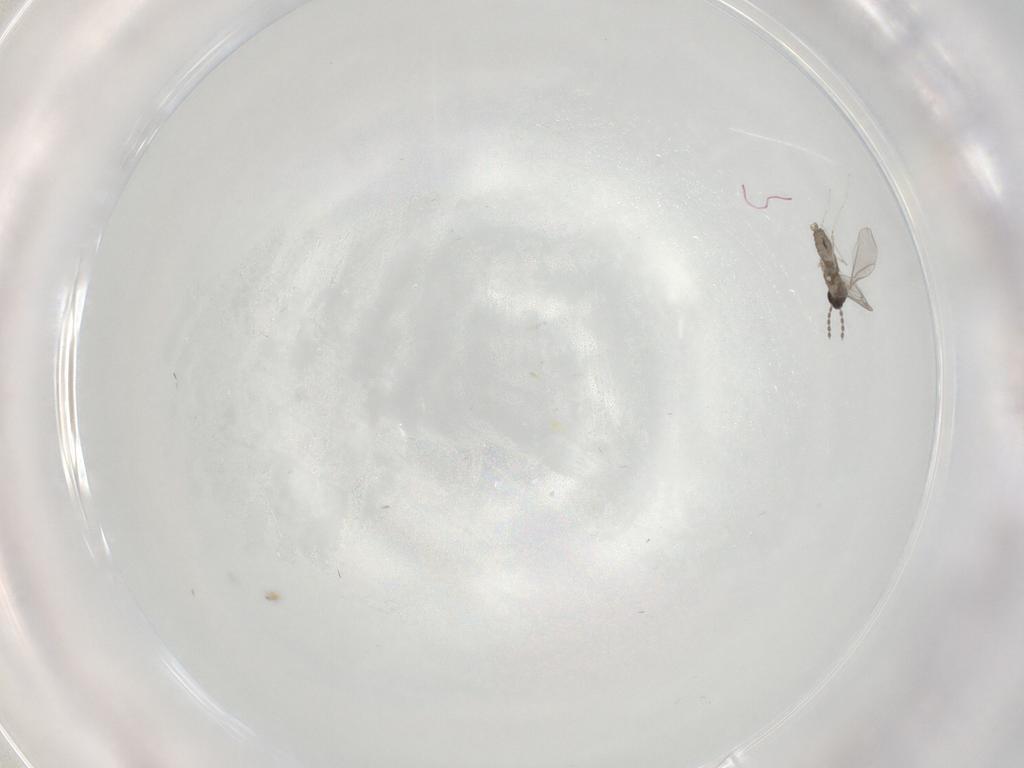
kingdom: Animalia
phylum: Arthropoda
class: Insecta
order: Diptera
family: Dolichopodidae
